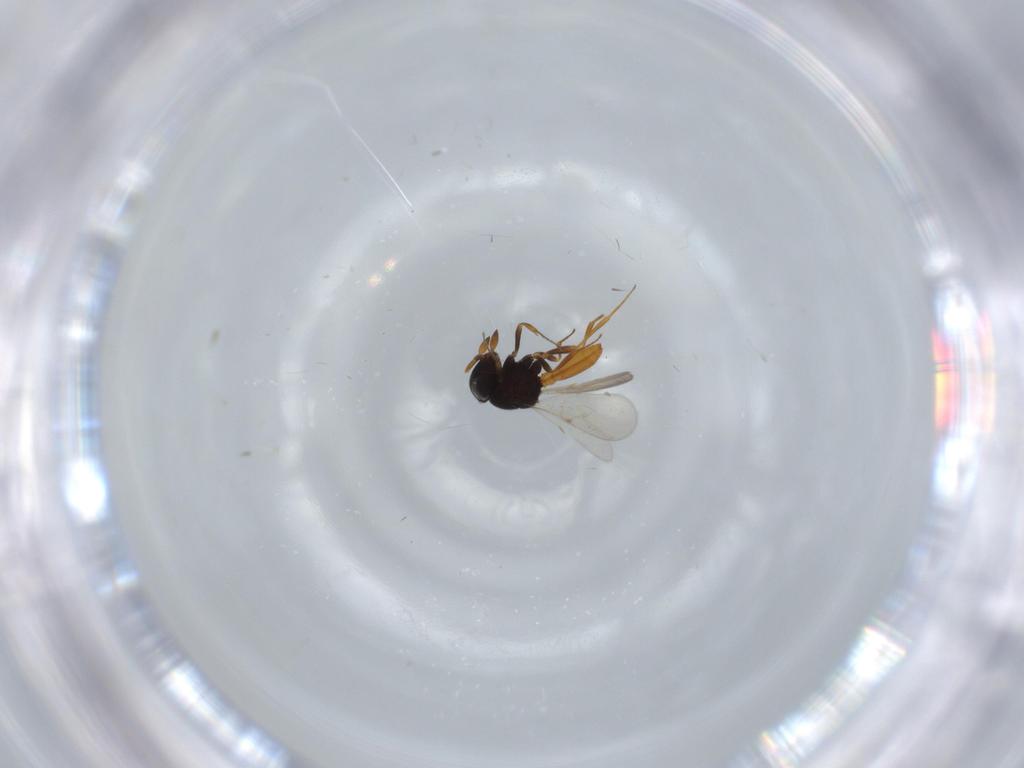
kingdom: Animalia
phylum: Arthropoda
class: Insecta
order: Hymenoptera
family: Scelionidae
